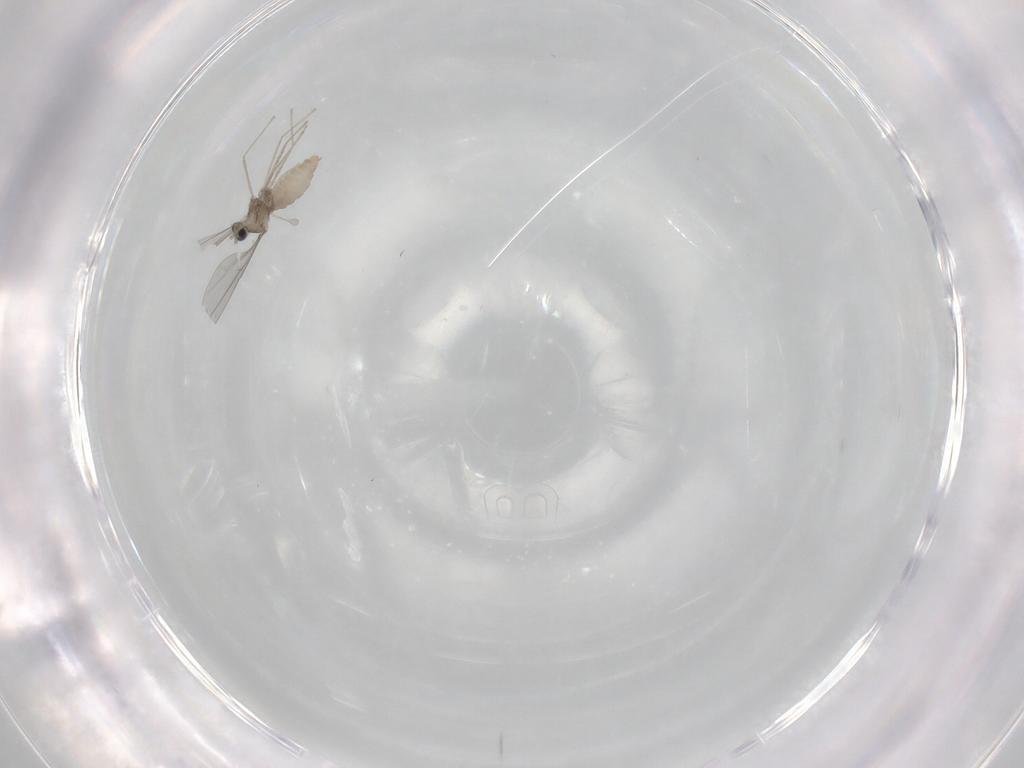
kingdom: Animalia
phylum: Arthropoda
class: Insecta
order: Diptera
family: Cecidomyiidae
